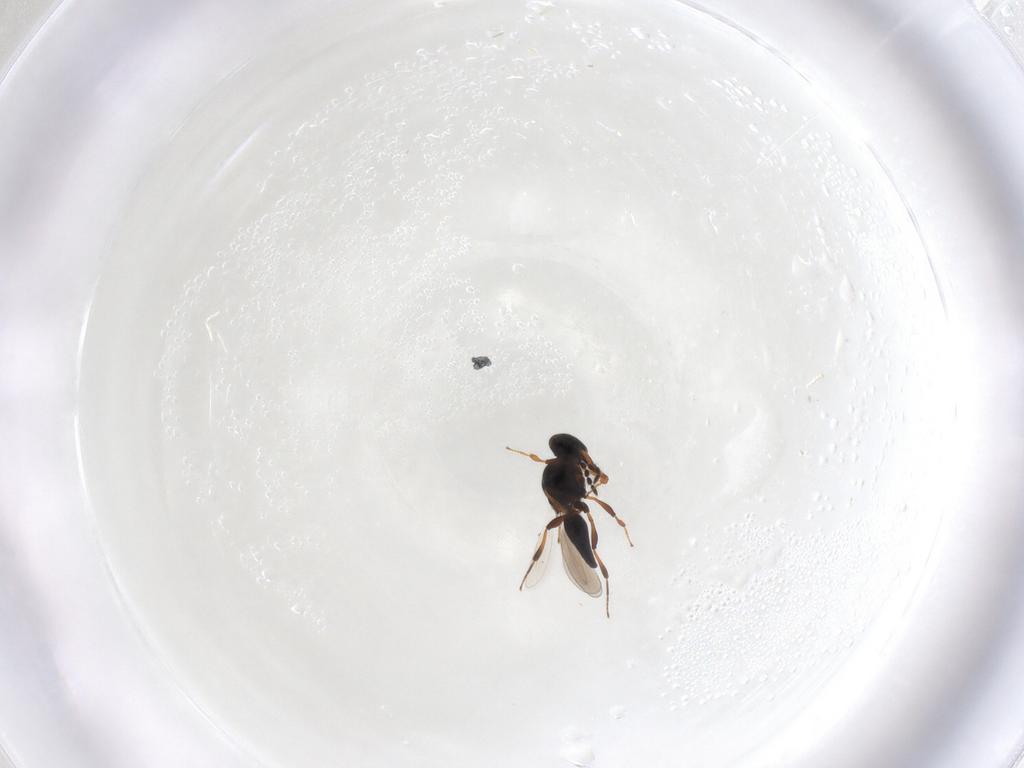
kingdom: Animalia
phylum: Arthropoda
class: Insecta
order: Hymenoptera
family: Platygastridae
